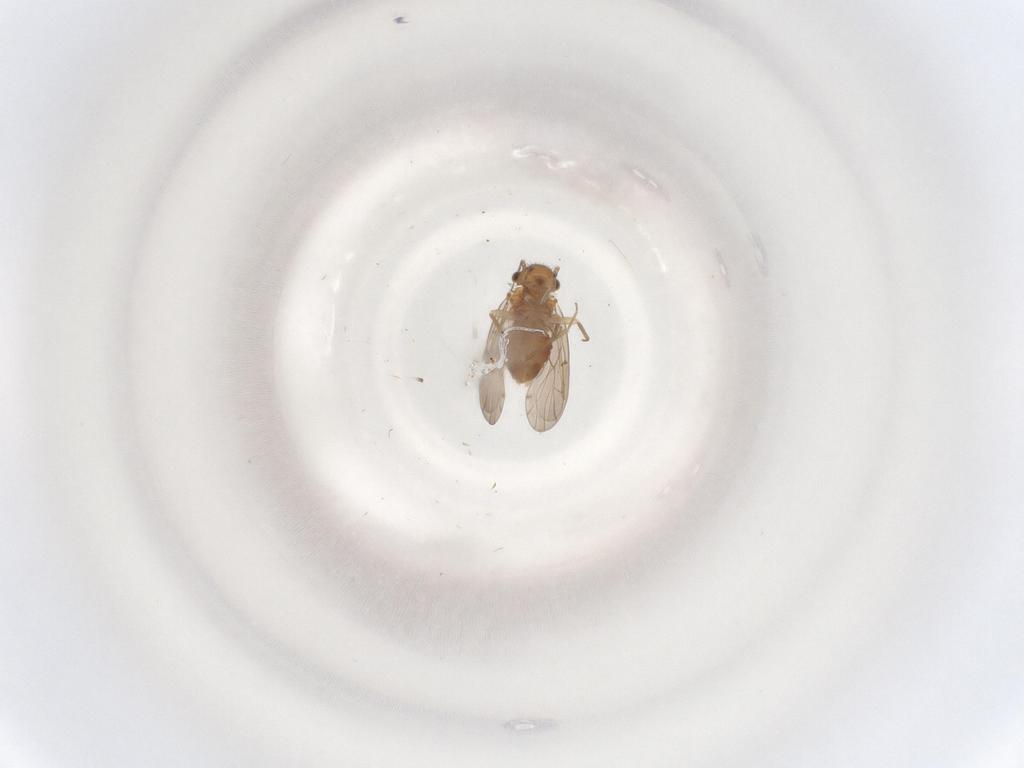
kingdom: Animalia
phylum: Arthropoda
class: Insecta
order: Psocodea
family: Ectopsocidae
